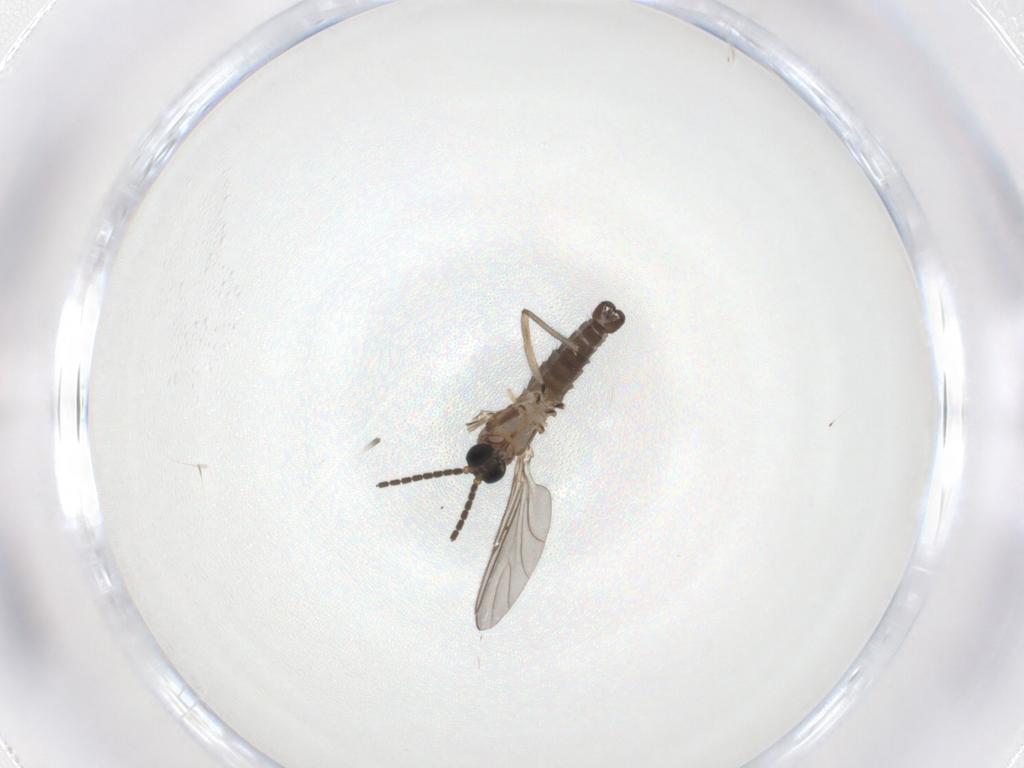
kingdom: Animalia
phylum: Arthropoda
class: Insecta
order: Diptera
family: Sciaridae
